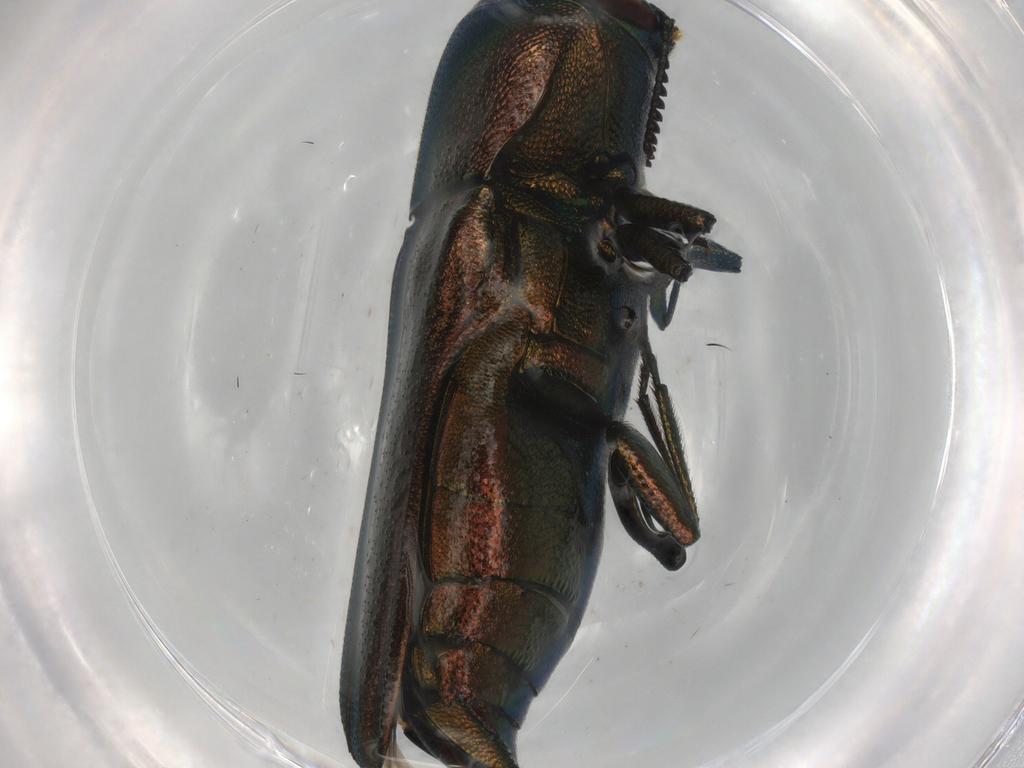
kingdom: Animalia
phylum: Arthropoda
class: Insecta
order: Coleoptera
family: Buprestidae
